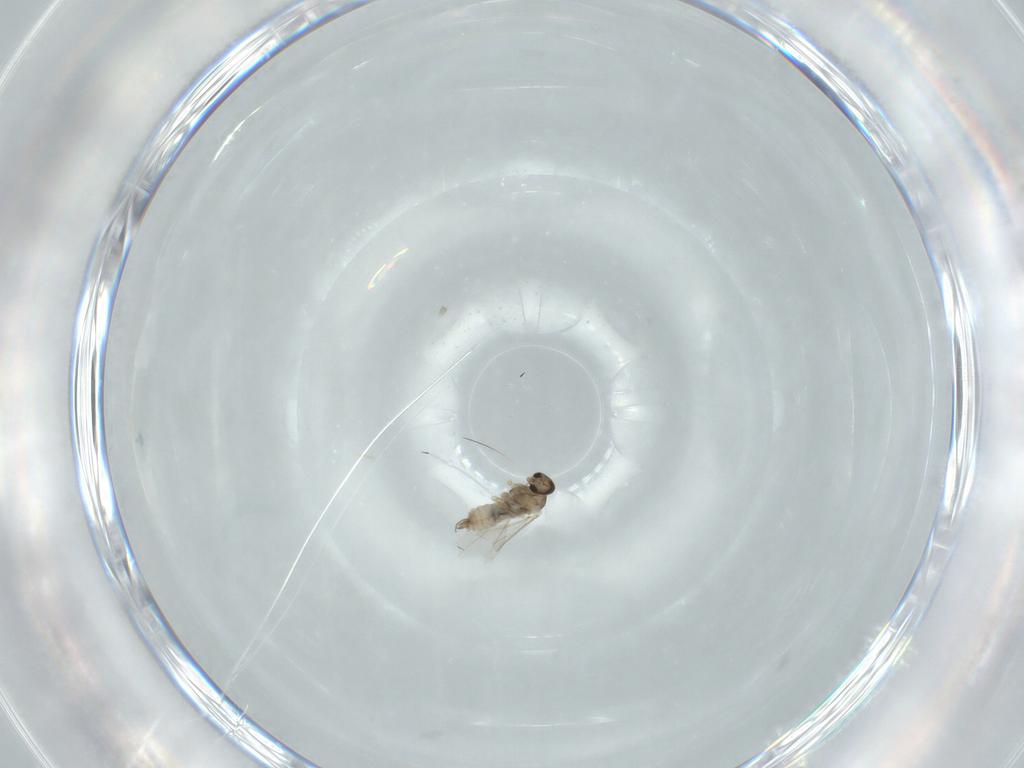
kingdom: Animalia
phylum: Arthropoda
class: Insecta
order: Diptera
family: Cecidomyiidae
